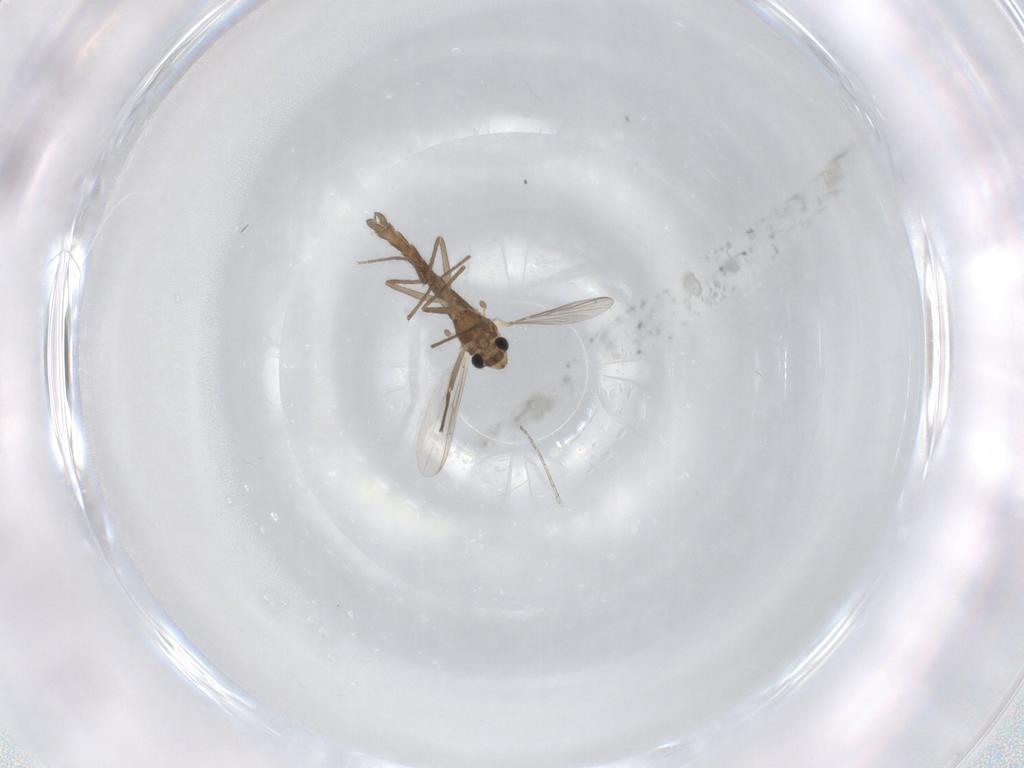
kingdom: Animalia
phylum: Arthropoda
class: Insecta
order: Diptera
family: Chironomidae
